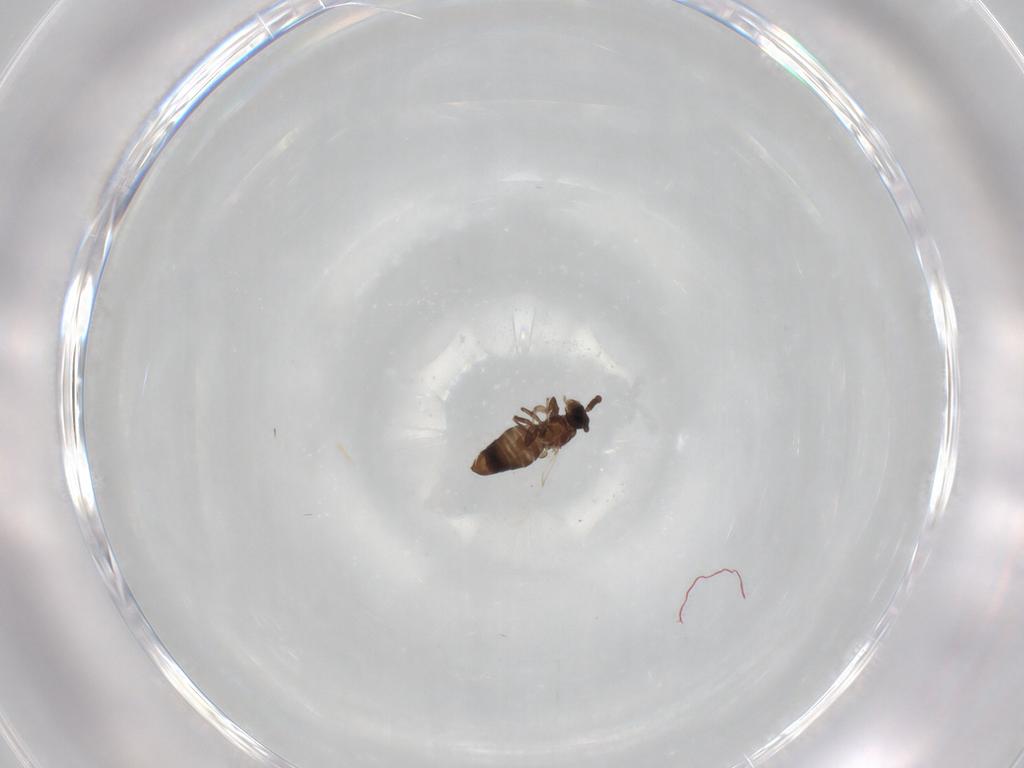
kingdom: Animalia
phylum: Arthropoda
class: Insecta
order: Diptera
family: Scatopsidae
